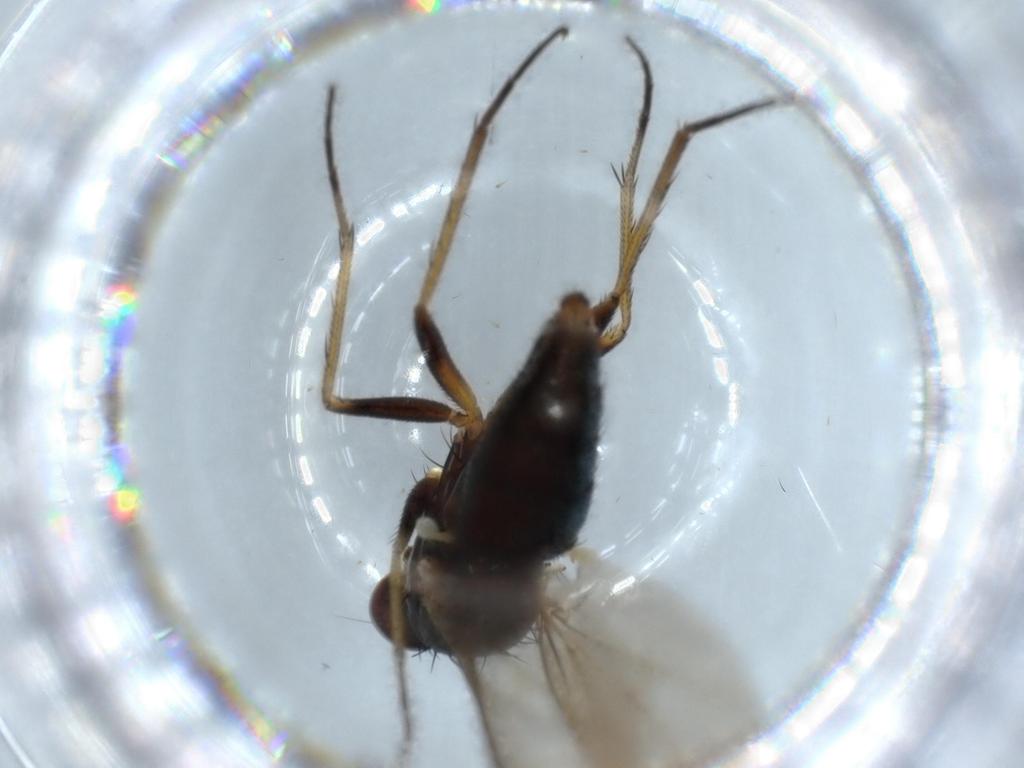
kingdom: Animalia
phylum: Arthropoda
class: Insecta
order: Diptera
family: Dolichopodidae
